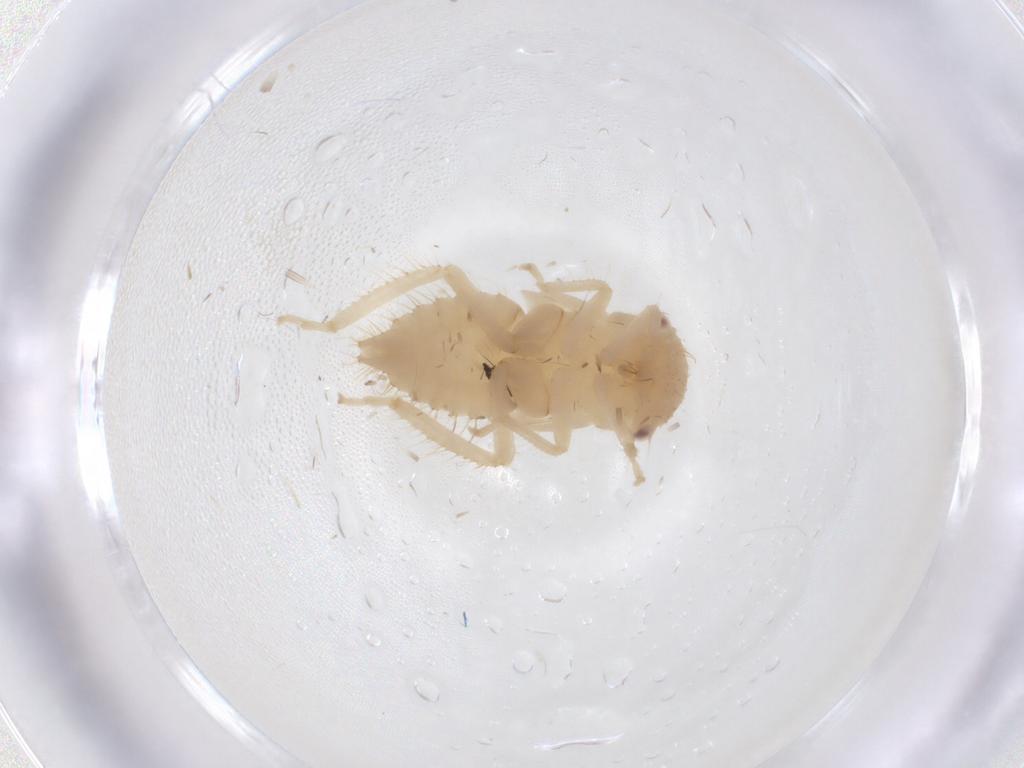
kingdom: Animalia
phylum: Arthropoda
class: Insecta
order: Hemiptera
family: Cicadellidae
